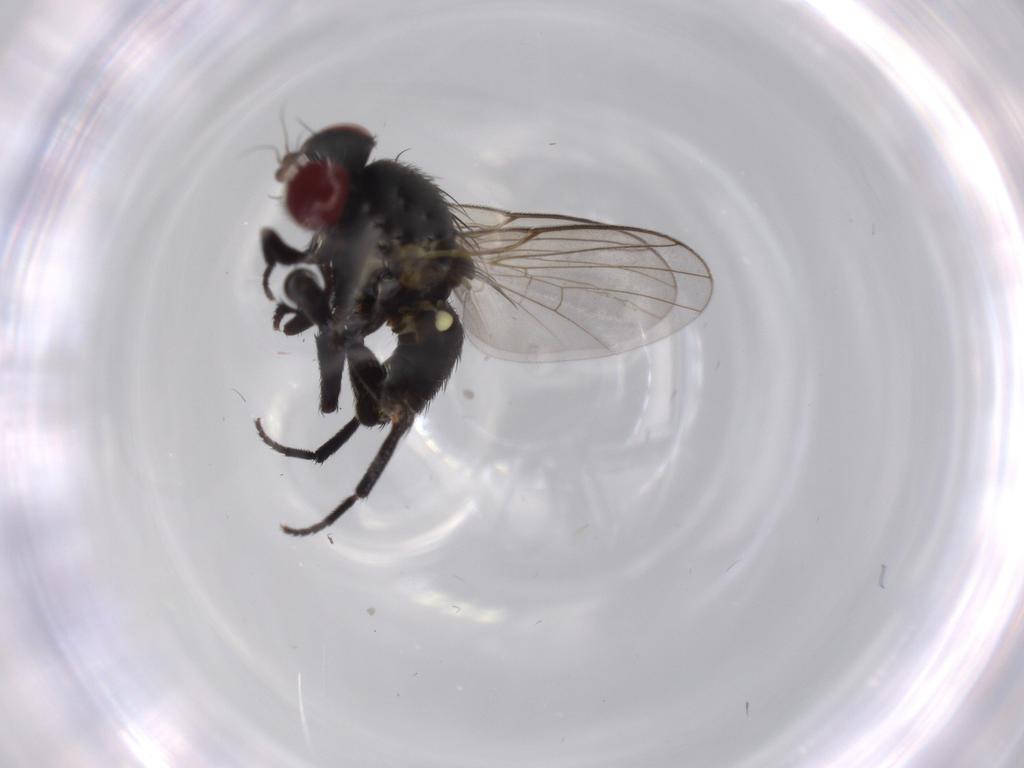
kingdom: Animalia
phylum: Arthropoda
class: Insecta
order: Diptera
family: Agromyzidae
